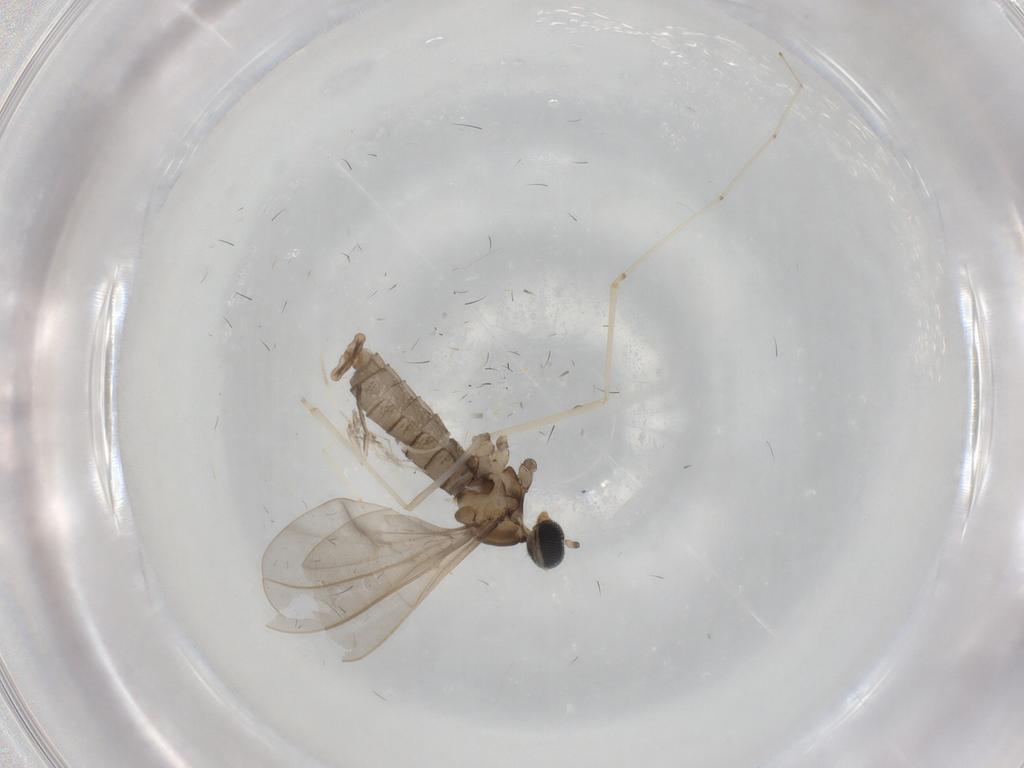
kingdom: Animalia
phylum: Arthropoda
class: Insecta
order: Diptera
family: Cecidomyiidae
